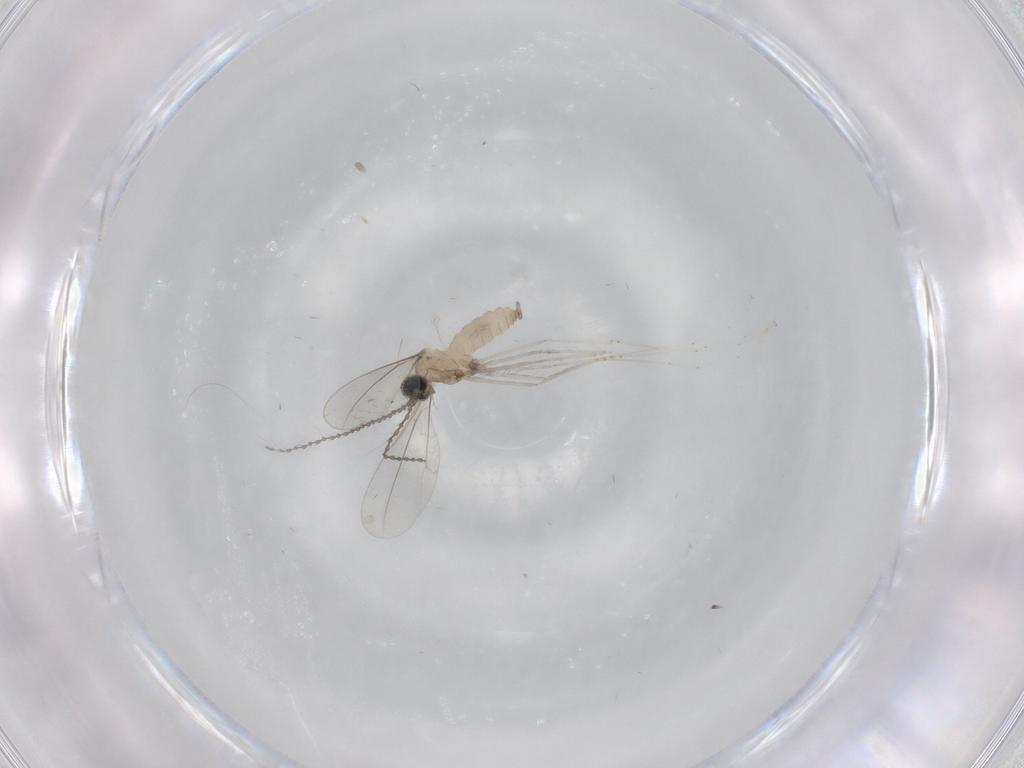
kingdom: Animalia
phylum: Arthropoda
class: Insecta
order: Diptera
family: Cecidomyiidae
